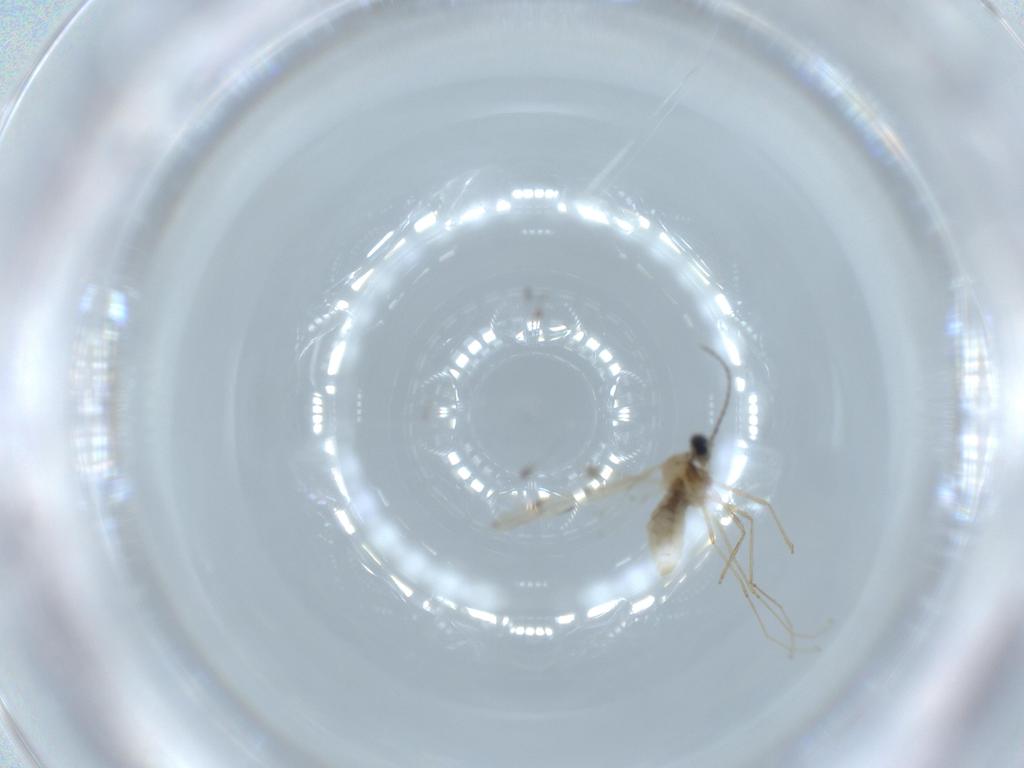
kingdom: Animalia
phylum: Arthropoda
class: Insecta
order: Diptera
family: Cecidomyiidae
